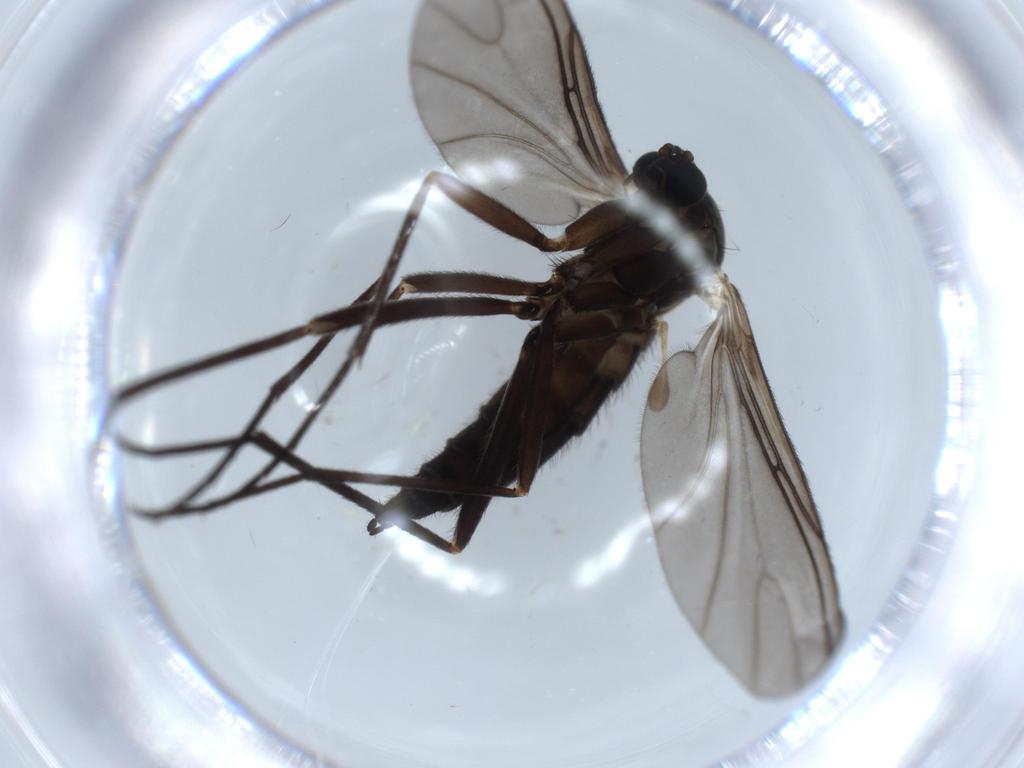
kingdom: Animalia
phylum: Arthropoda
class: Insecta
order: Diptera
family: Sciaridae
